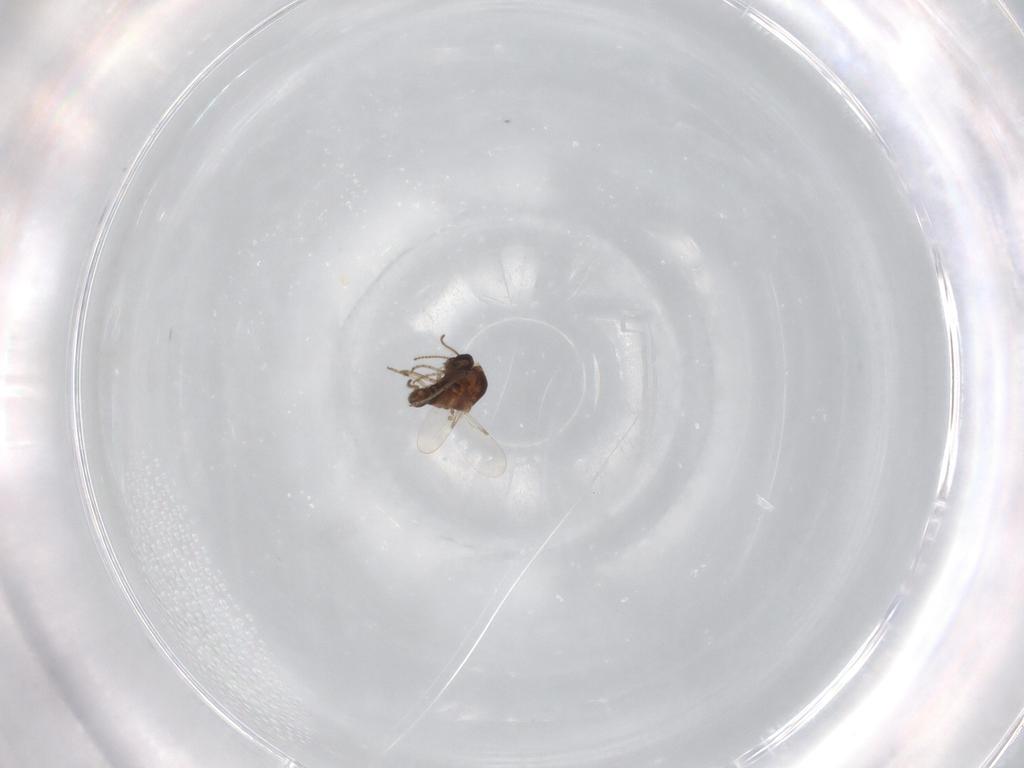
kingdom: Animalia
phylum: Arthropoda
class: Insecta
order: Diptera
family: Ceratopogonidae
